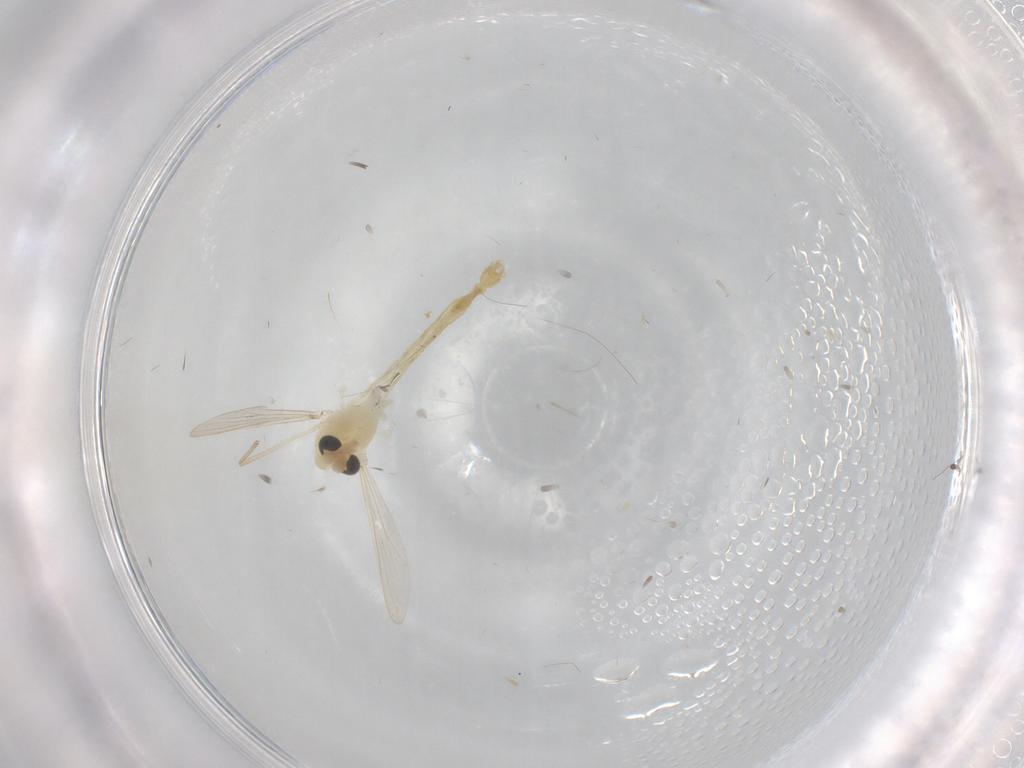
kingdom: Animalia
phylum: Arthropoda
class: Insecta
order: Diptera
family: Chironomidae
